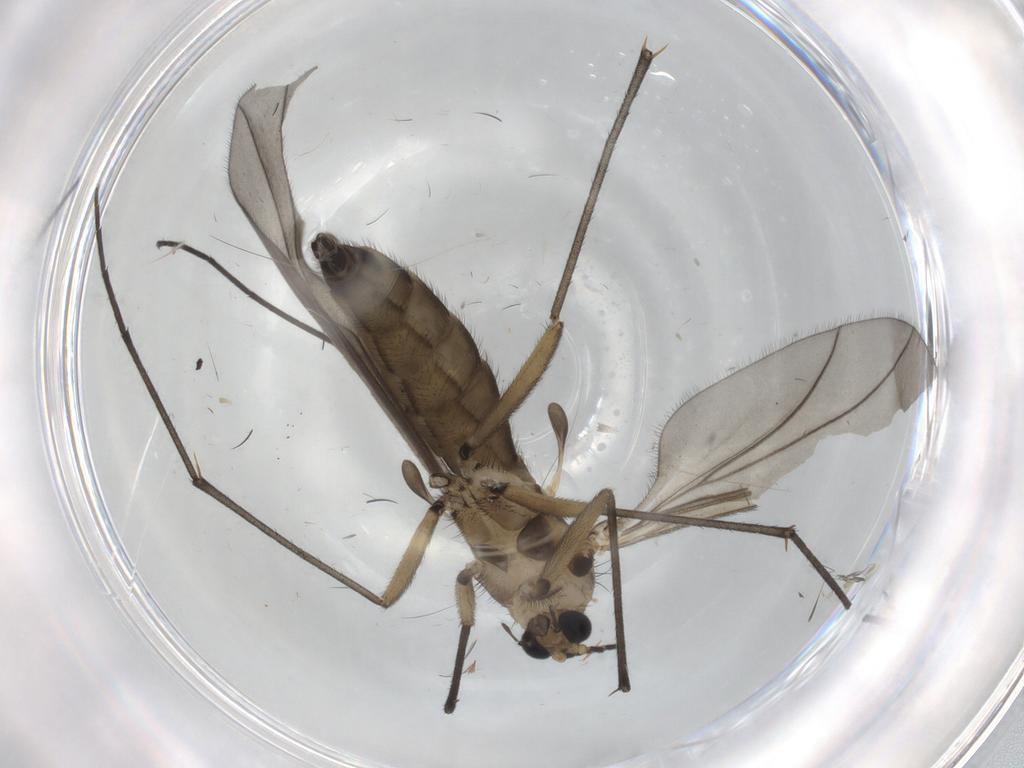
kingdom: Animalia
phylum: Arthropoda
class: Insecta
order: Diptera
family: Sciaridae
